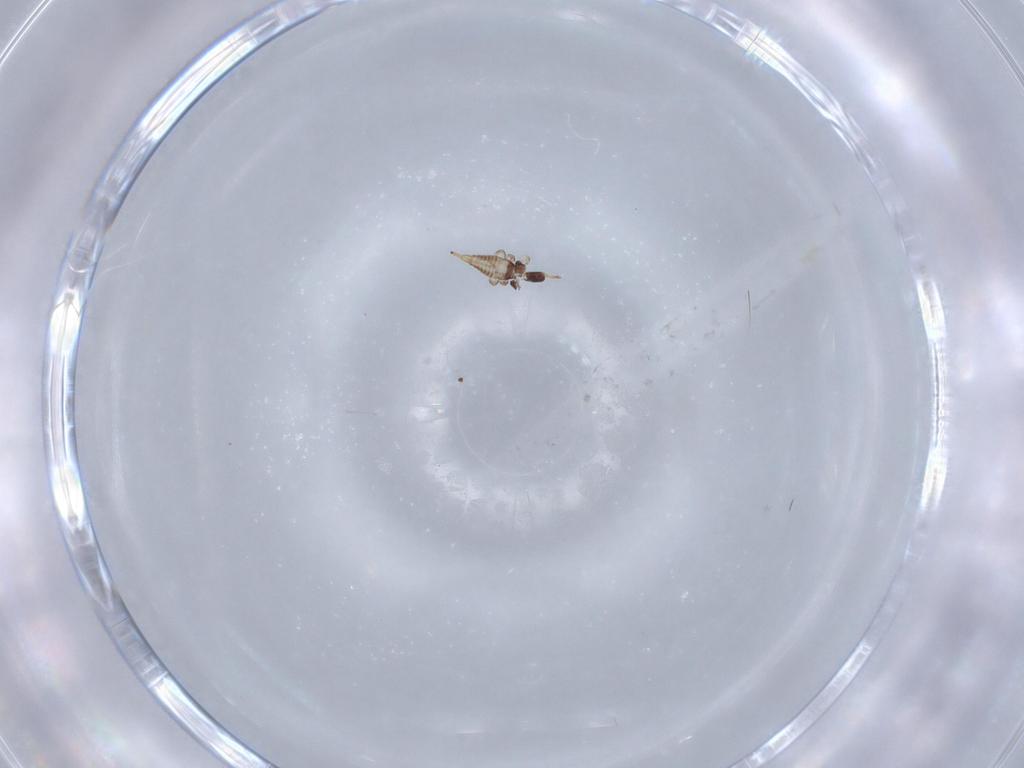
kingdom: Animalia
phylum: Arthropoda
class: Insecta
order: Thysanoptera
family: Phlaeothripidae
